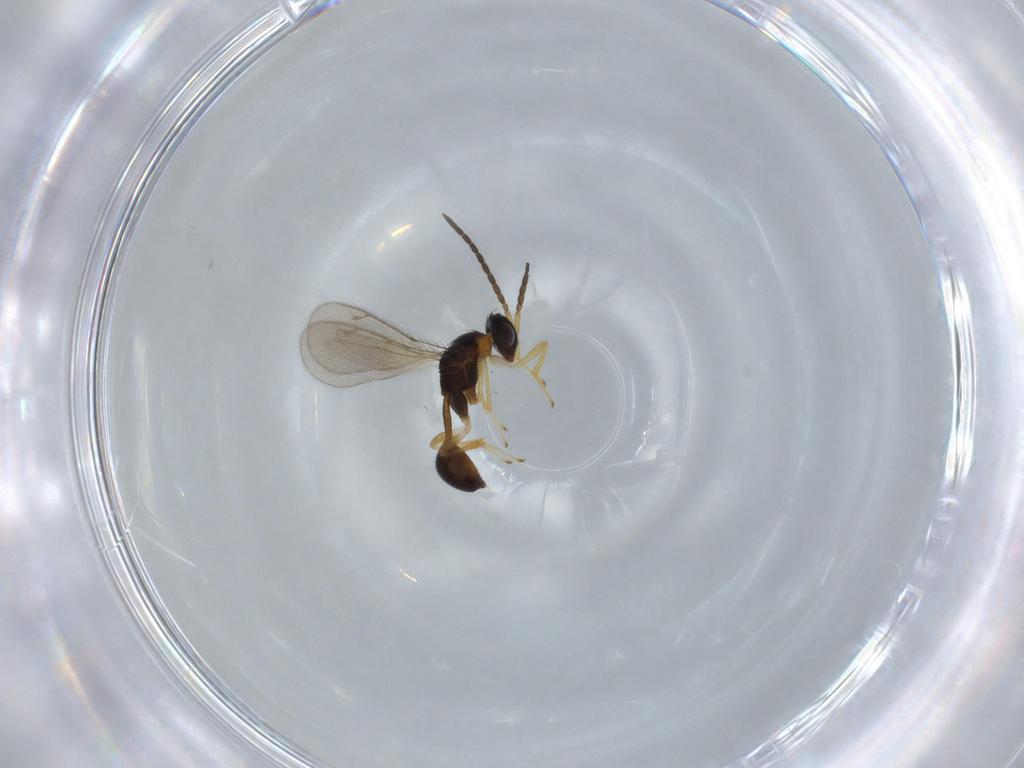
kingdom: Animalia
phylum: Arthropoda
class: Insecta
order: Hymenoptera
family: Diparidae
